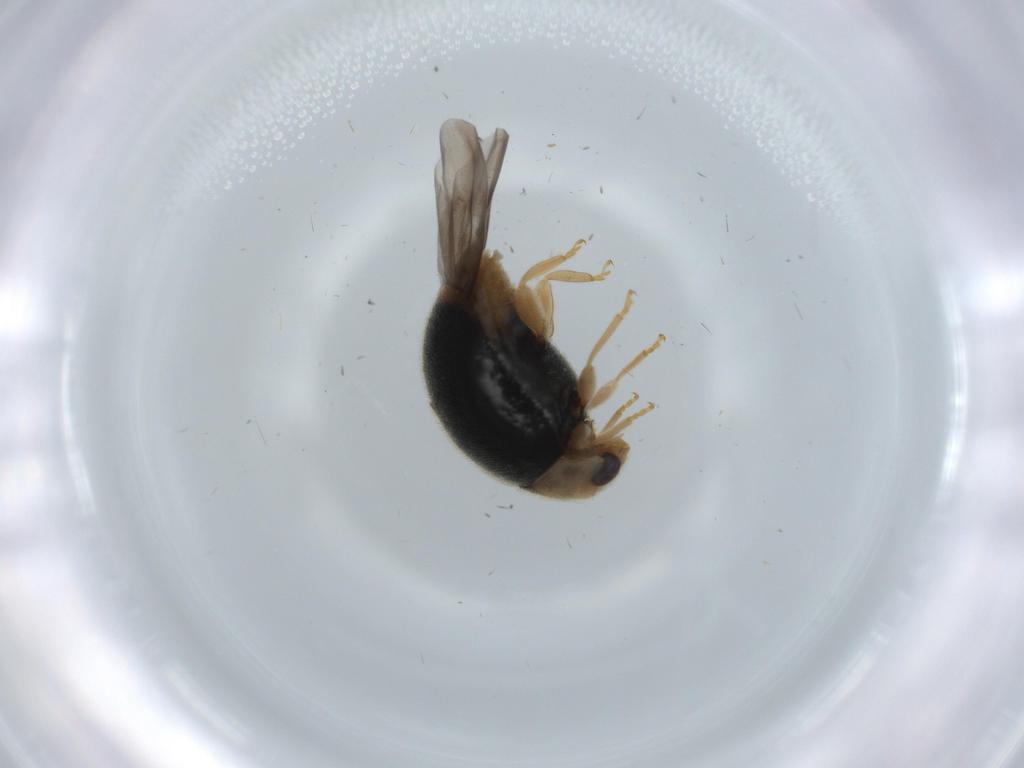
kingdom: Animalia
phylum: Arthropoda
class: Insecta
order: Coleoptera
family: Coccinellidae
